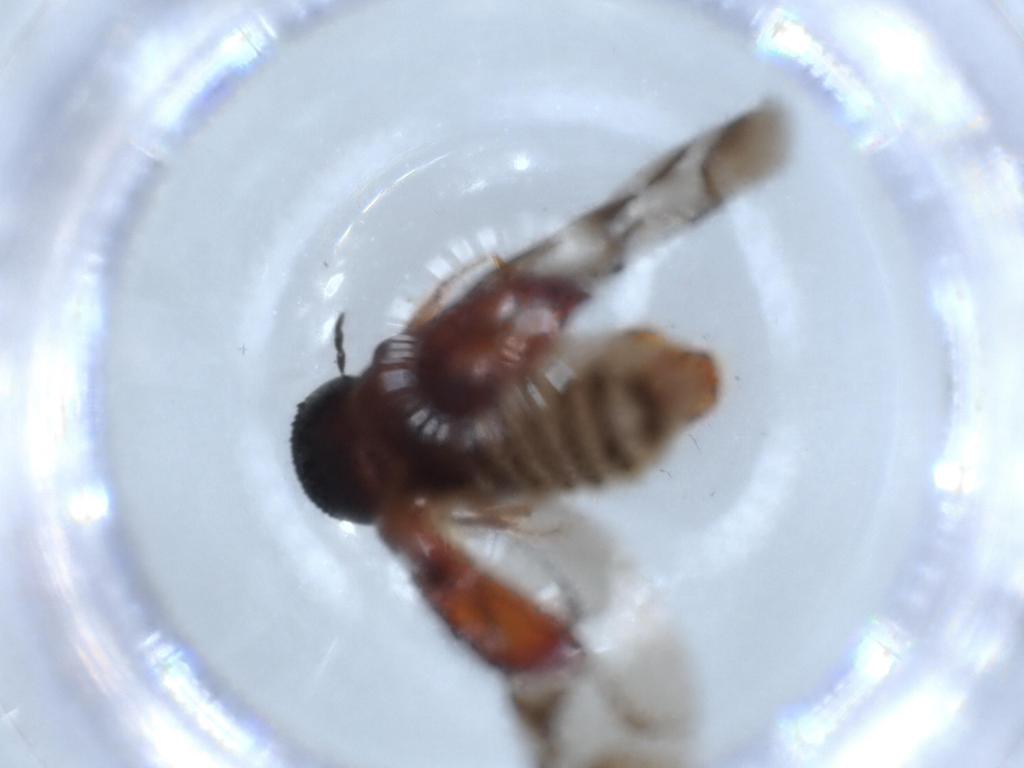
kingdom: Animalia
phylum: Arthropoda
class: Insecta
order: Coleoptera
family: Bostrichidae
